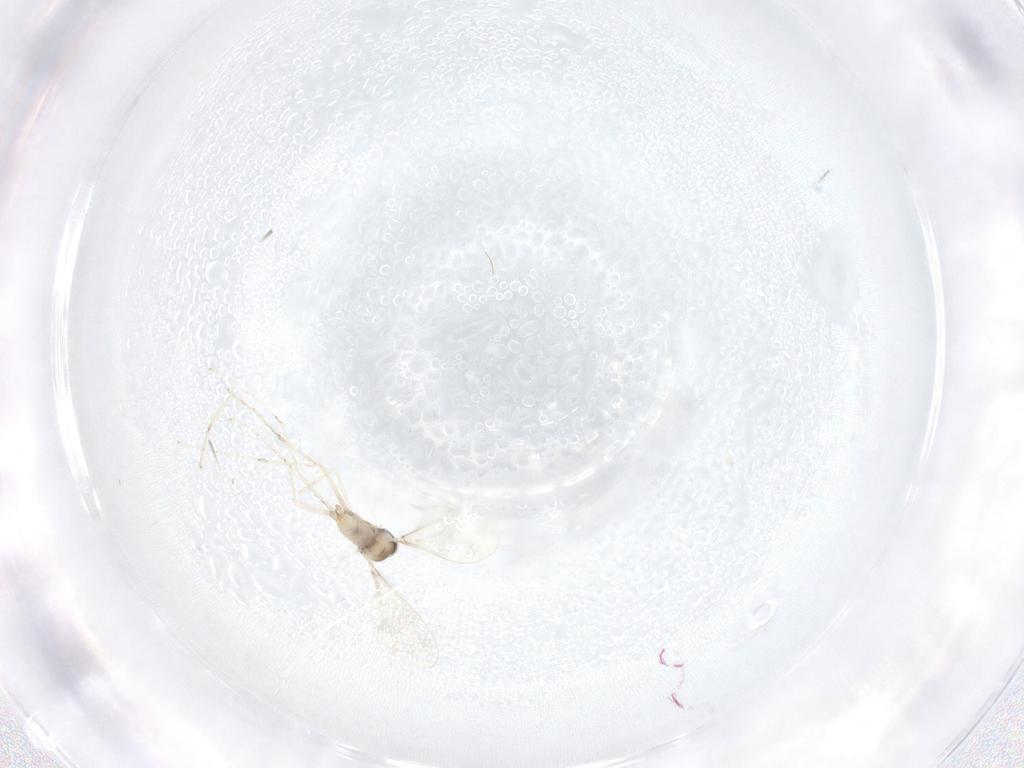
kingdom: Animalia
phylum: Arthropoda
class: Insecta
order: Diptera
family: Cecidomyiidae
